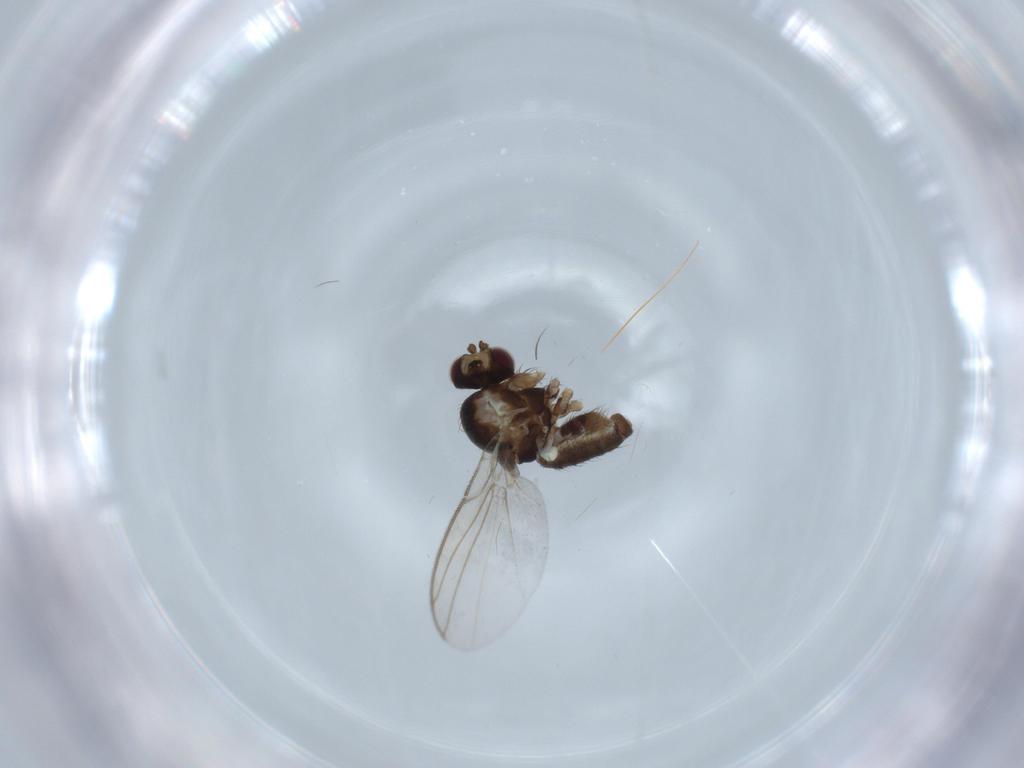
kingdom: Animalia
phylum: Arthropoda
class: Insecta
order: Diptera
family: Agromyzidae
